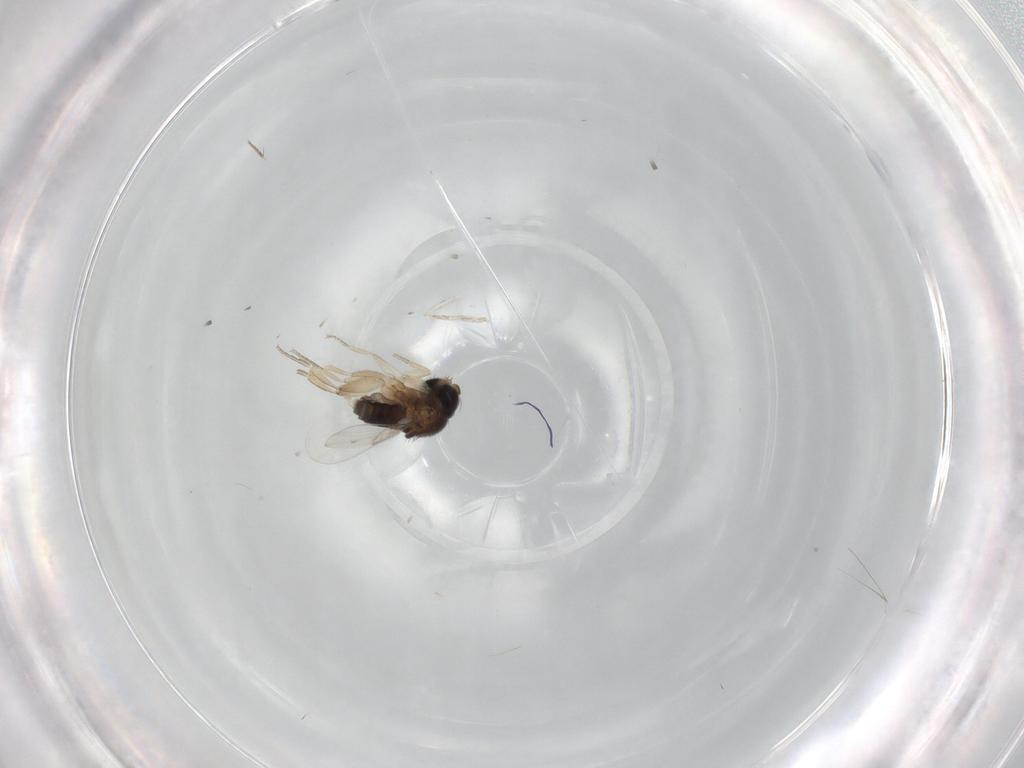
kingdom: Animalia
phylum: Arthropoda
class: Insecta
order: Diptera
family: Phoridae
